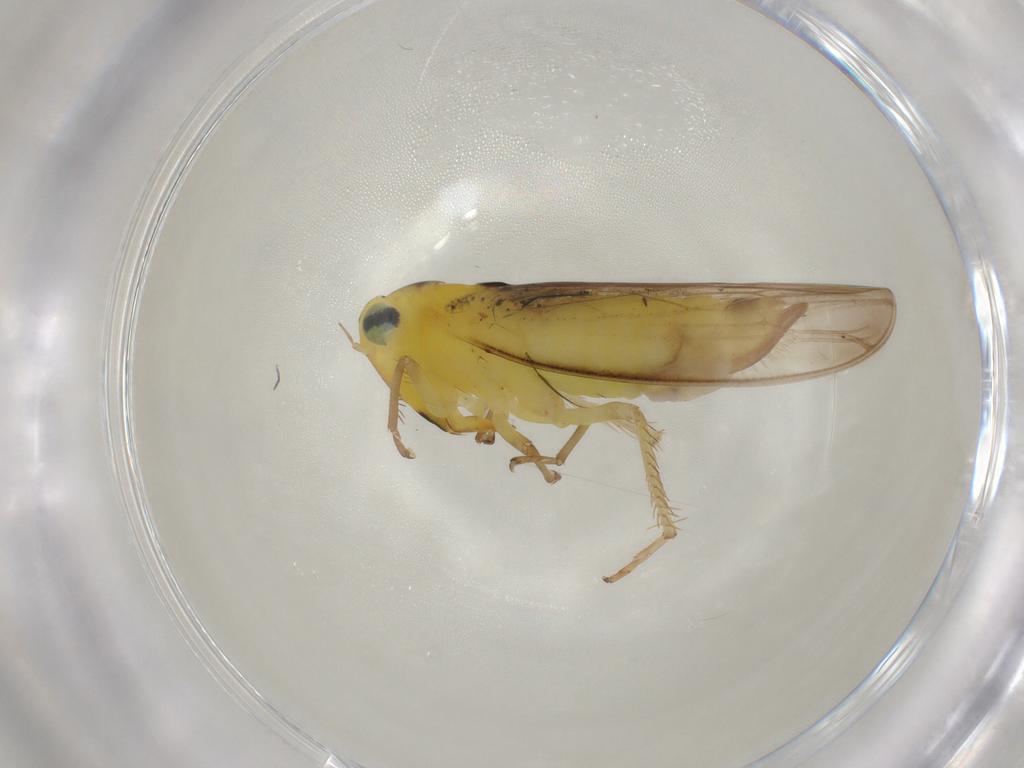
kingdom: Animalia
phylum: Arthropoda
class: Insecta
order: Hemiptera
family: Cicadellidae
